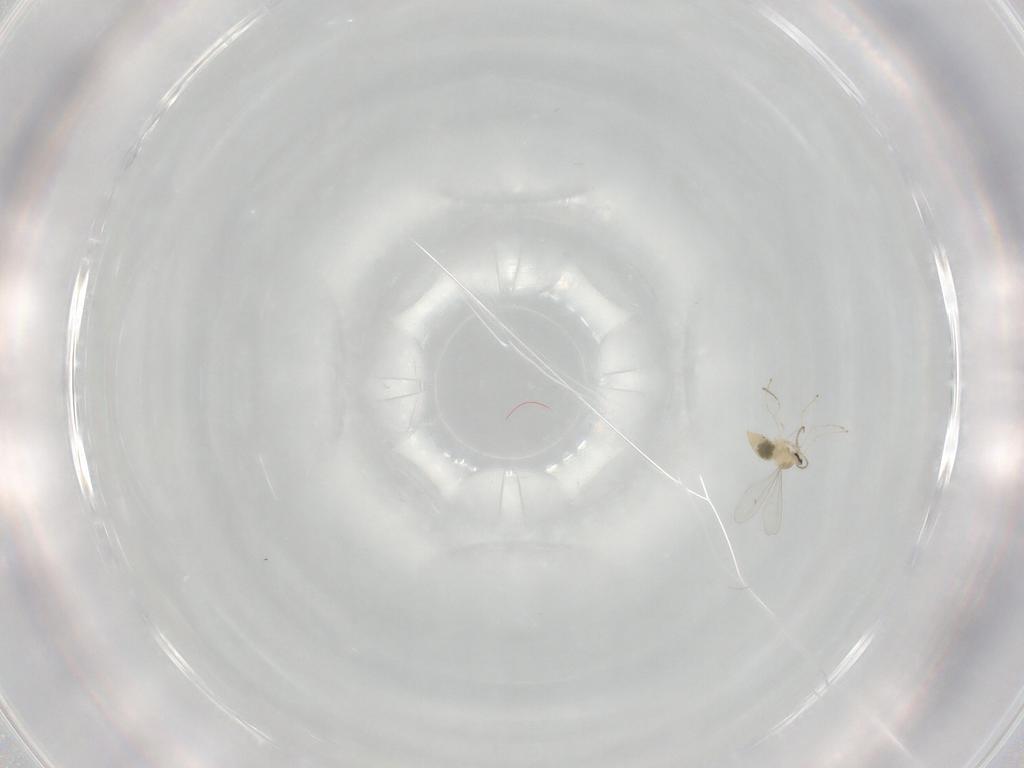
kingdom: Animalia
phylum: Arthropoda
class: Insecta
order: Diptera
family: Cecidomyiidae
